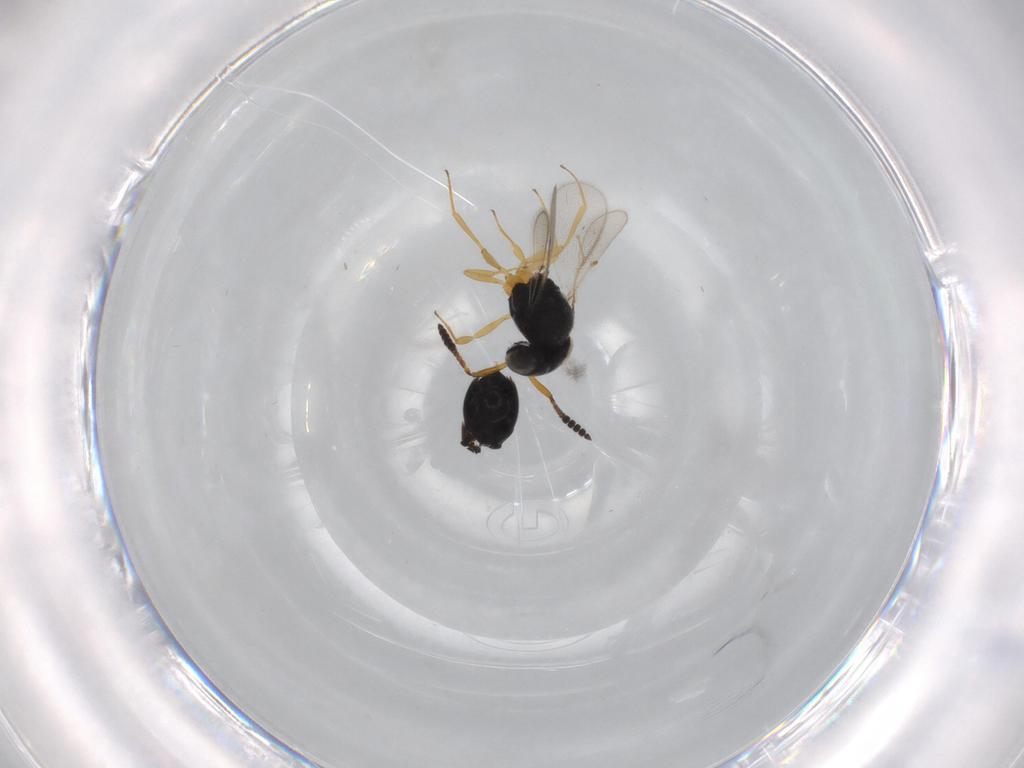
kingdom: Animalia
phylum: Arthropoda
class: Insecta
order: Hymenoptera
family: Scelionidae
